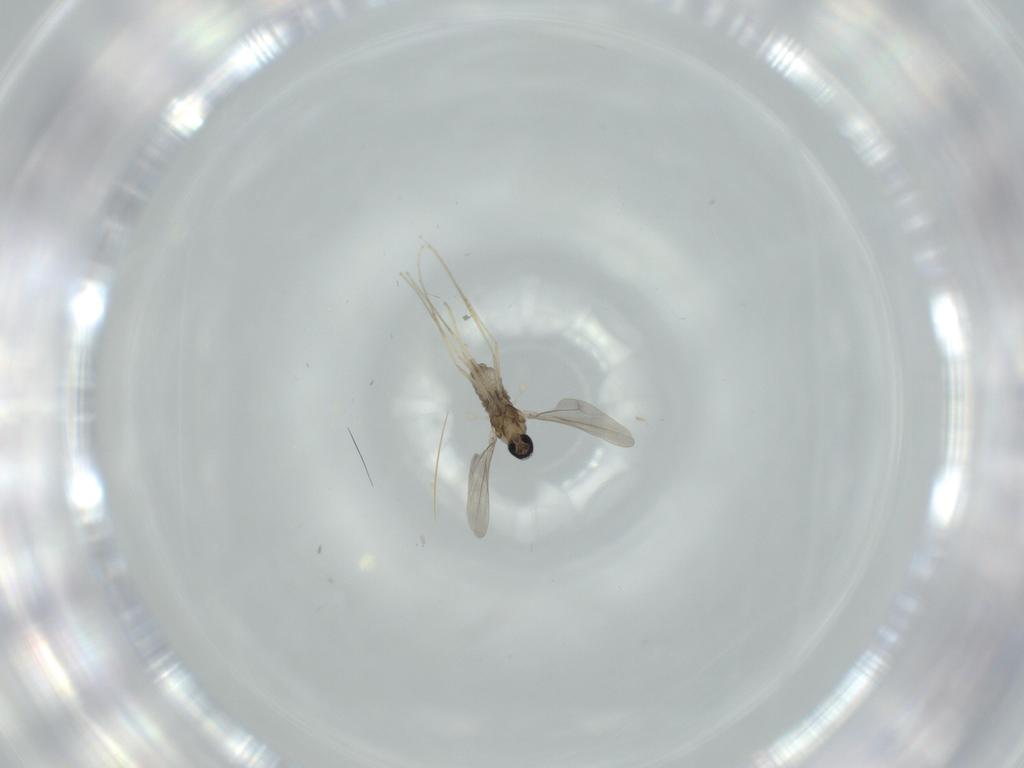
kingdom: Animalia
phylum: Arthropoda
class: Insecta
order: Diptera
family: Cecidomyiidae
